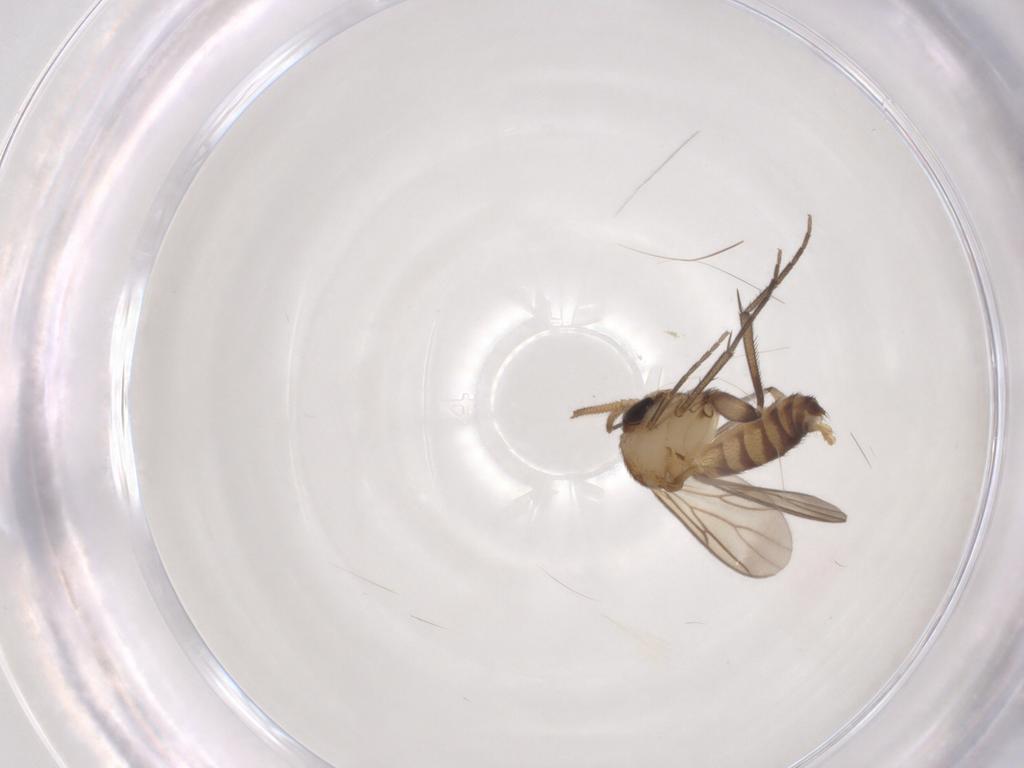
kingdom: Animalia
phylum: Arthropoda
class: Insecta
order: Diptera
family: Mycetophilidae
